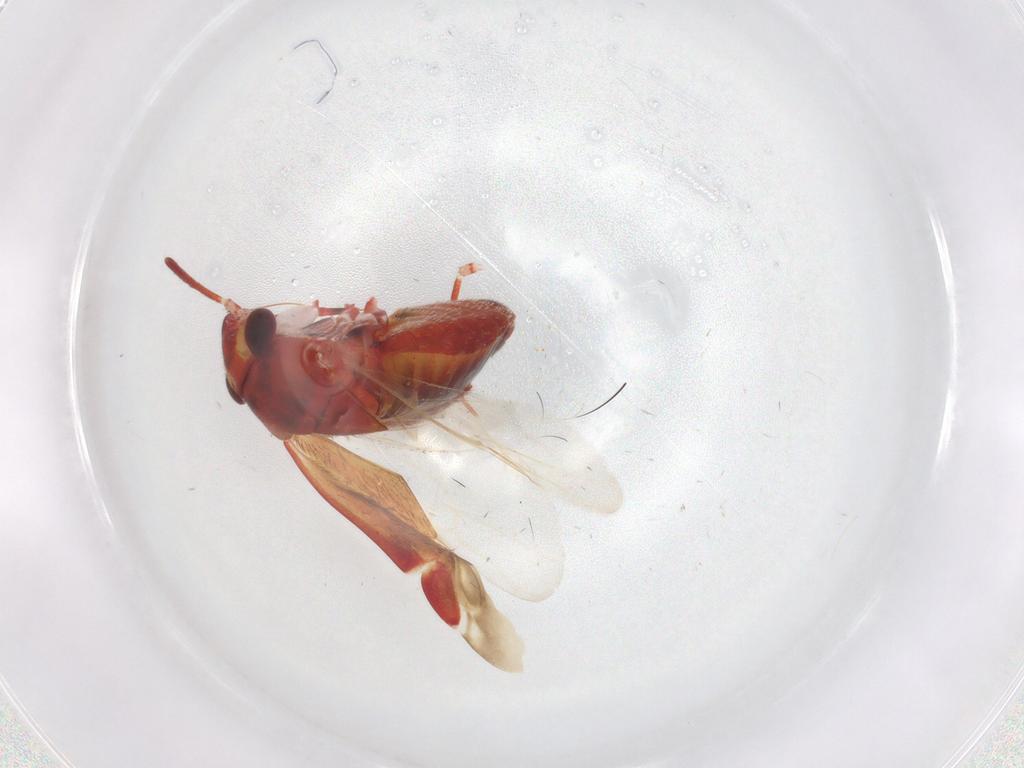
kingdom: Animalia
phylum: Arthropoda
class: Insecta
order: Hemiptera
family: Miridae
